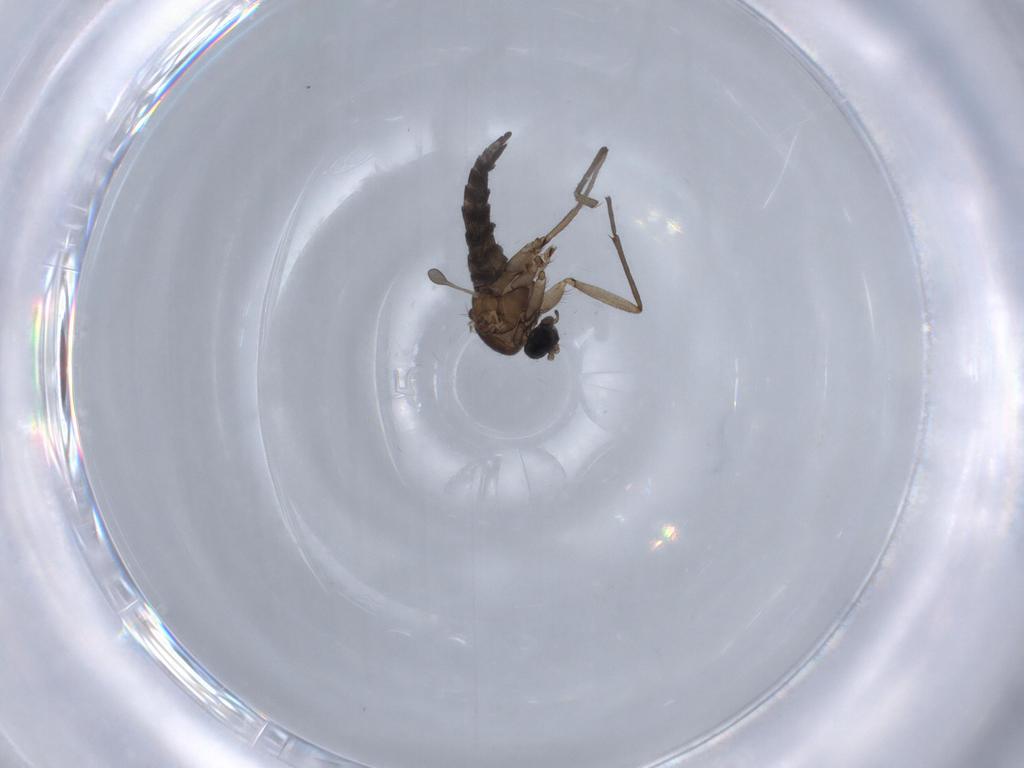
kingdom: Animalia
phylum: Arthropoda
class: Insecta
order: Diptera
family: Sciaridae
